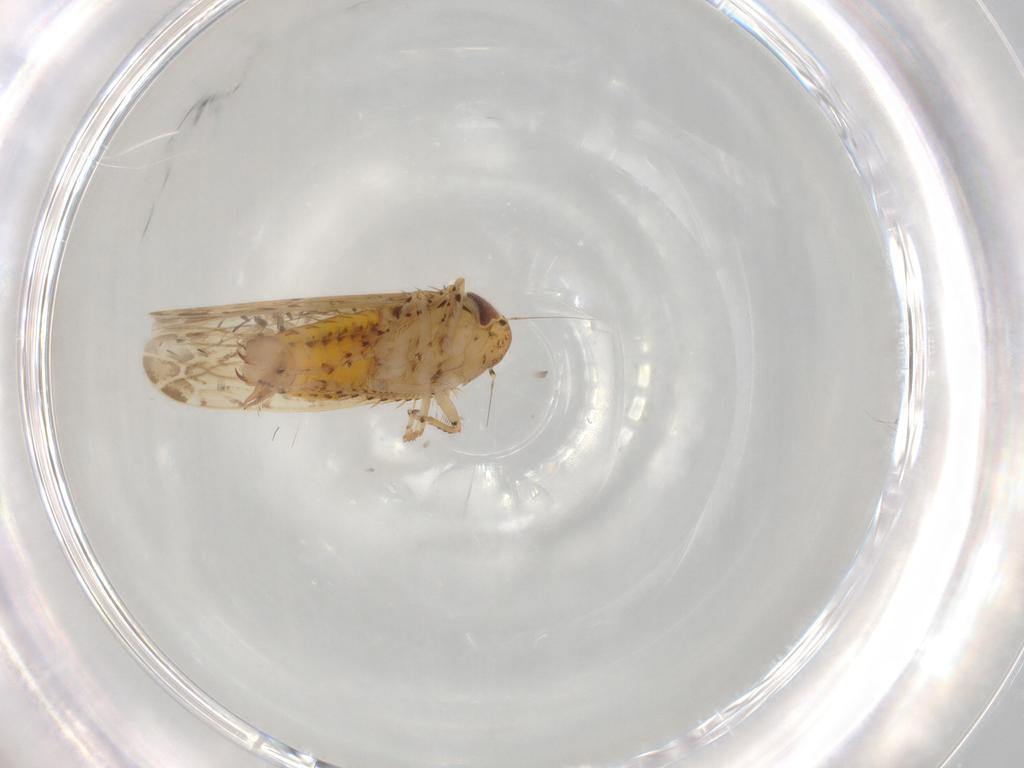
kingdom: Animalia
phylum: Arthropoda
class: Insecta
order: Hemiptera
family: Cicadellidae
